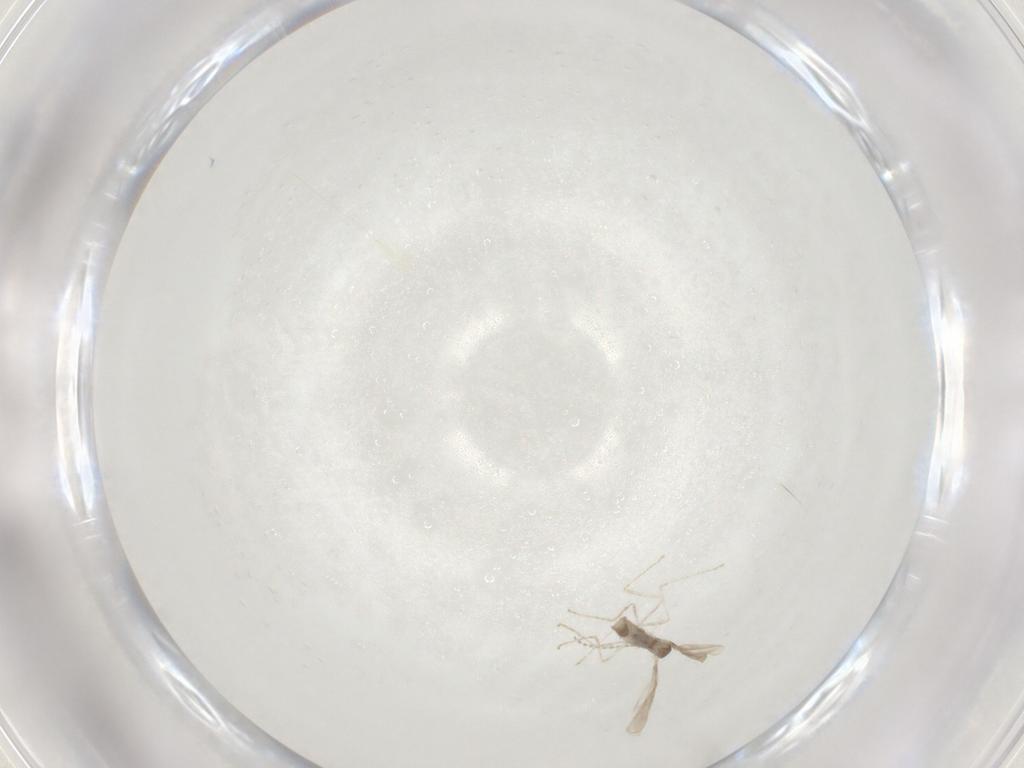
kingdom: Animalia
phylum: Arthropoda
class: Insecta
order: Diptera
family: Cecidomyiidae
